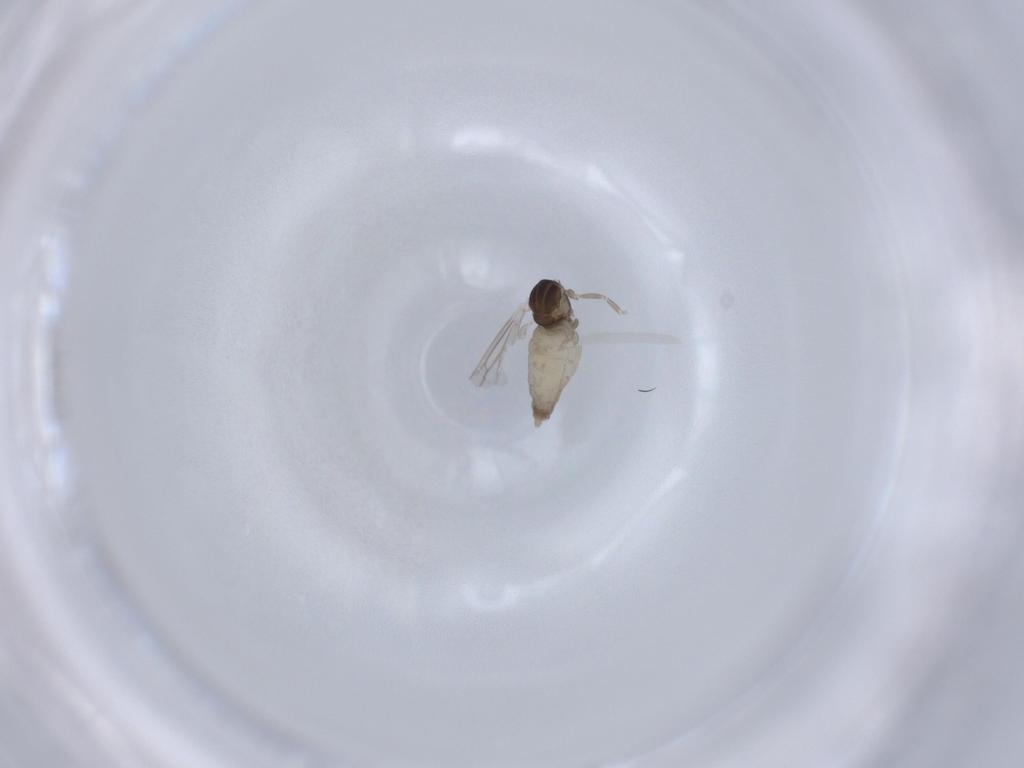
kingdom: Animalia
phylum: Arthropoda
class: Insecta
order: Diptera
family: Cecidomyiidae
